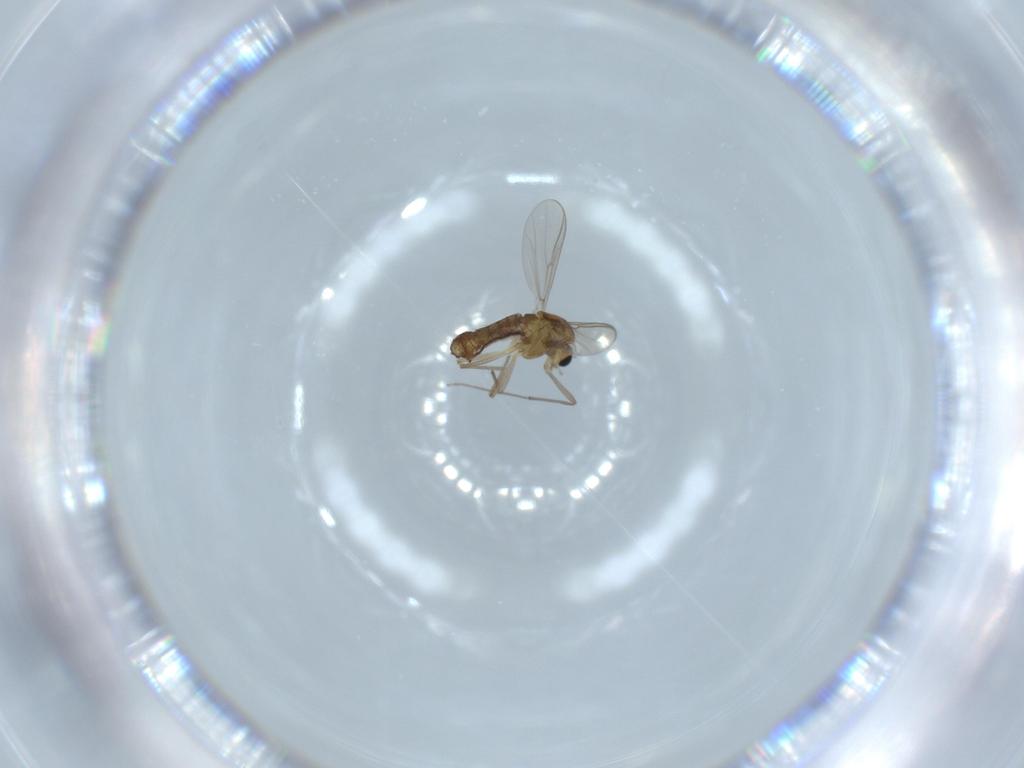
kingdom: Animalia
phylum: Arthropoda
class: Insecta
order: Diptera
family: Chironomidae
